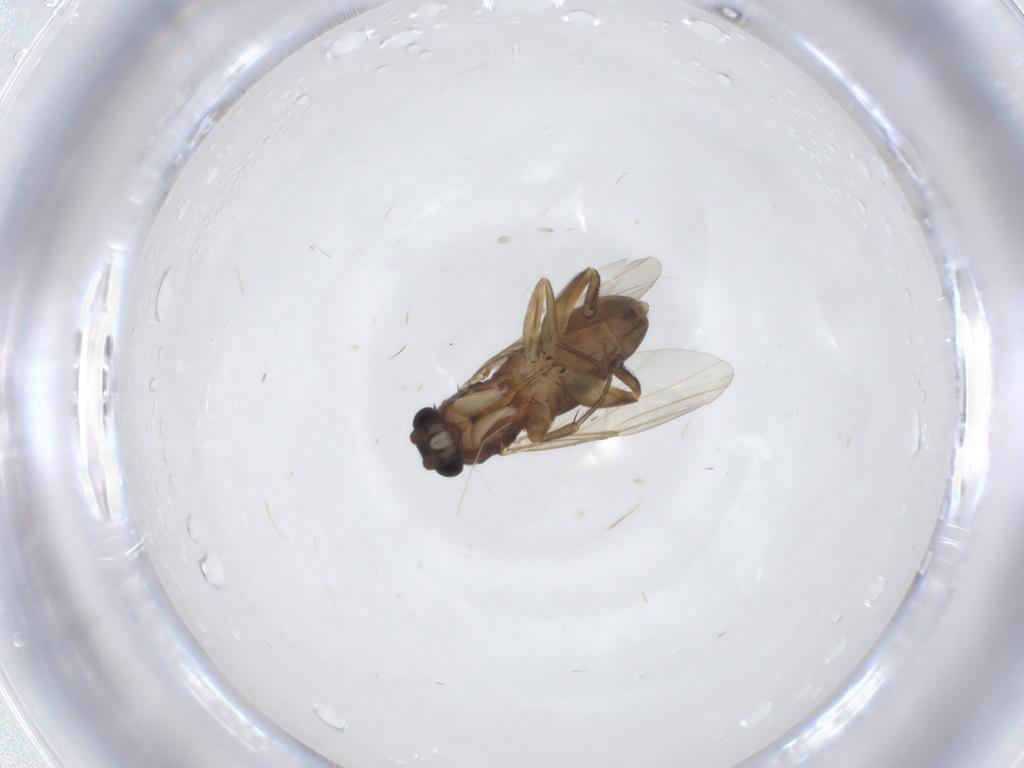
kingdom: Animalia
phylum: Arthropoda
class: Insecta
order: Diptera
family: Phoridae
